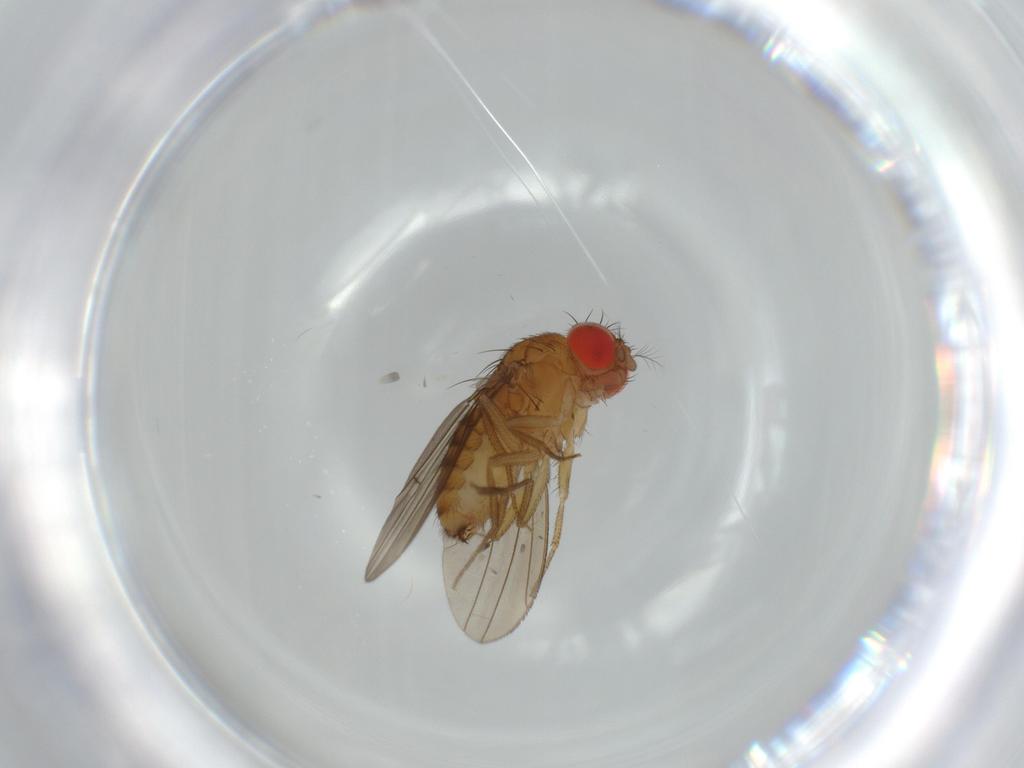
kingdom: Animalia
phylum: Arthropoda
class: Insecta
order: Diptera
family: Drosophilidae
